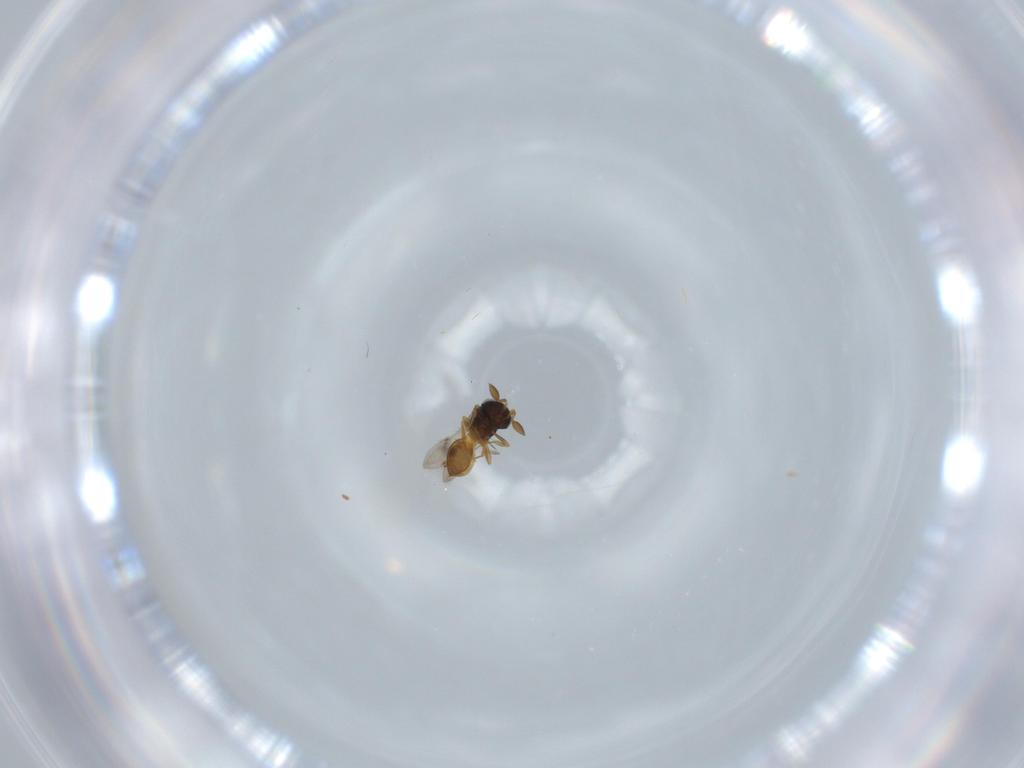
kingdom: Animalia
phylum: Arthropoda
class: Insecta
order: Hymenoptera
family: Scelionidae
